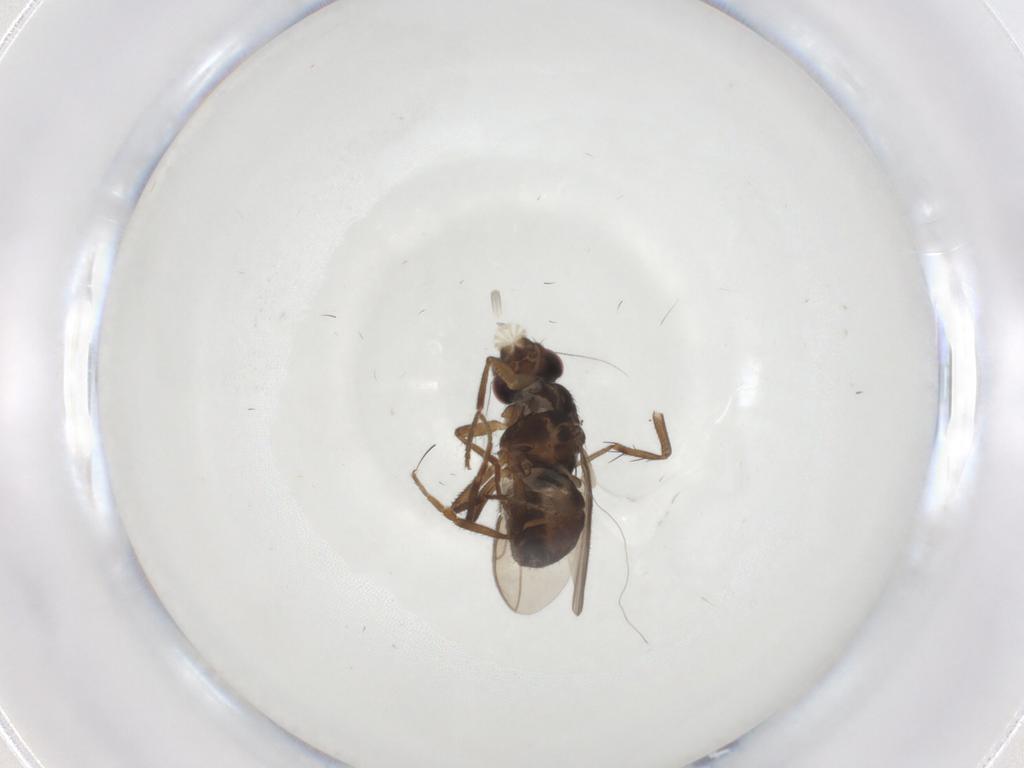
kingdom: Animalia
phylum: Arthropoda
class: Insecta
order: Diptera
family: Sphaeroceridae
